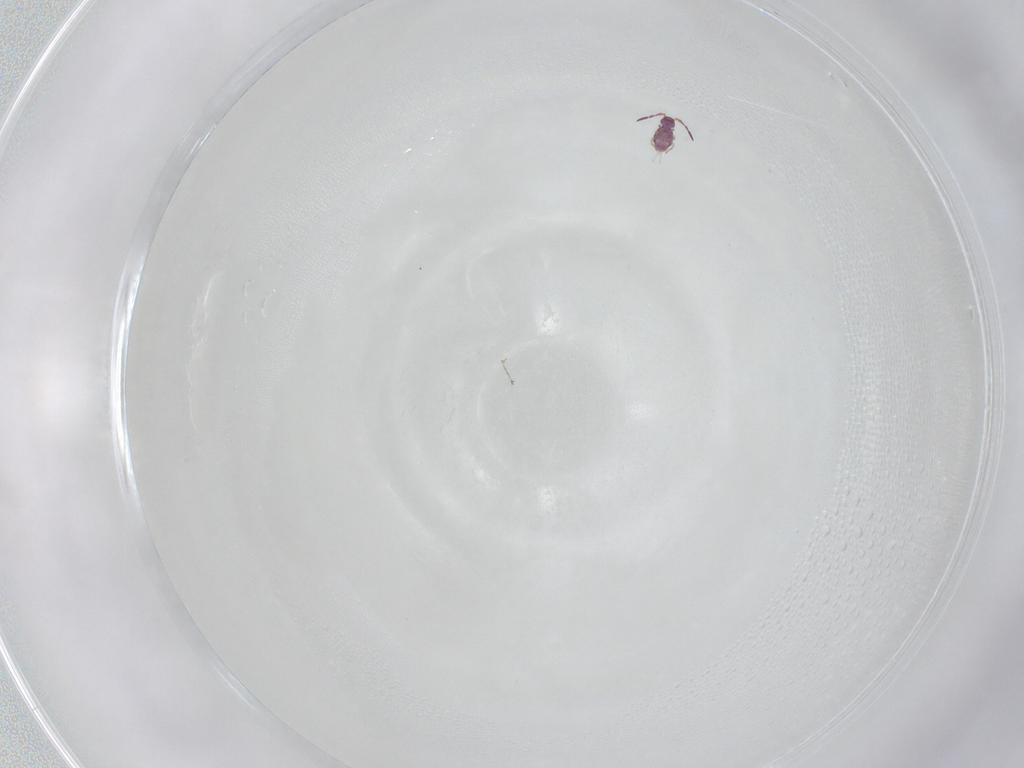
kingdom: Animalia
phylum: Arthropoda
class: Collembola
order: Symphypleona
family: Sminthurididae
